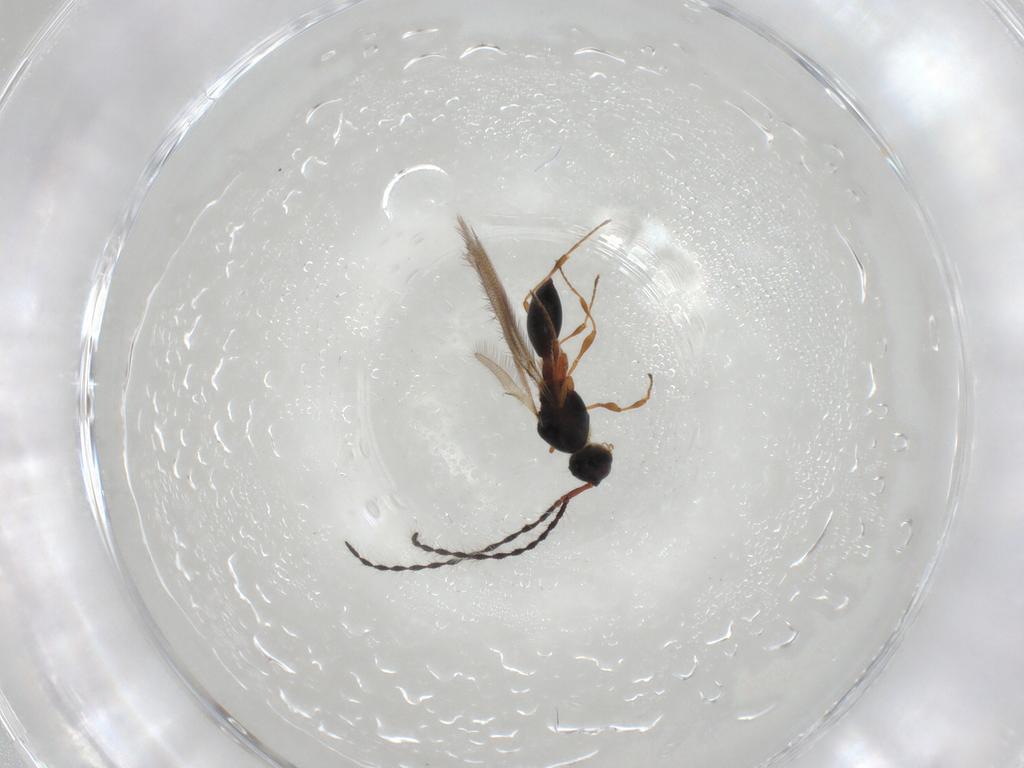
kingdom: Animalia
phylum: Arthropoda
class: Insecta
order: Hymenoptera
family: Diapriidae
